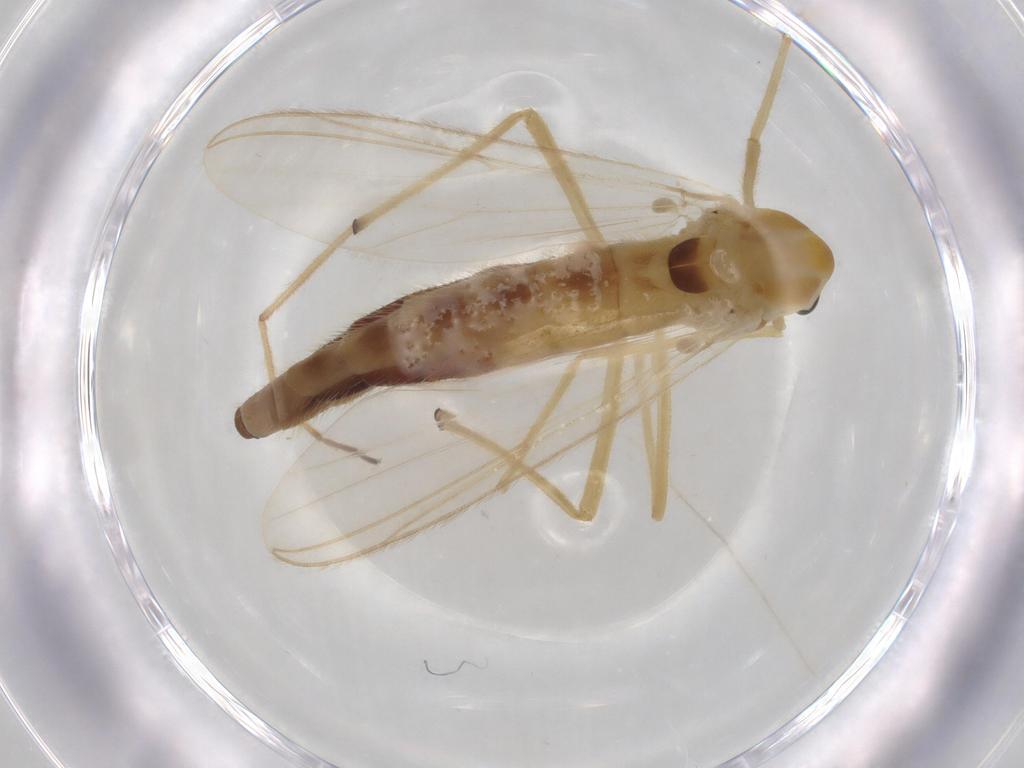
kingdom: Animalia
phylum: Arthropoda
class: Insecta
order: Diptera
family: Chironomidae
